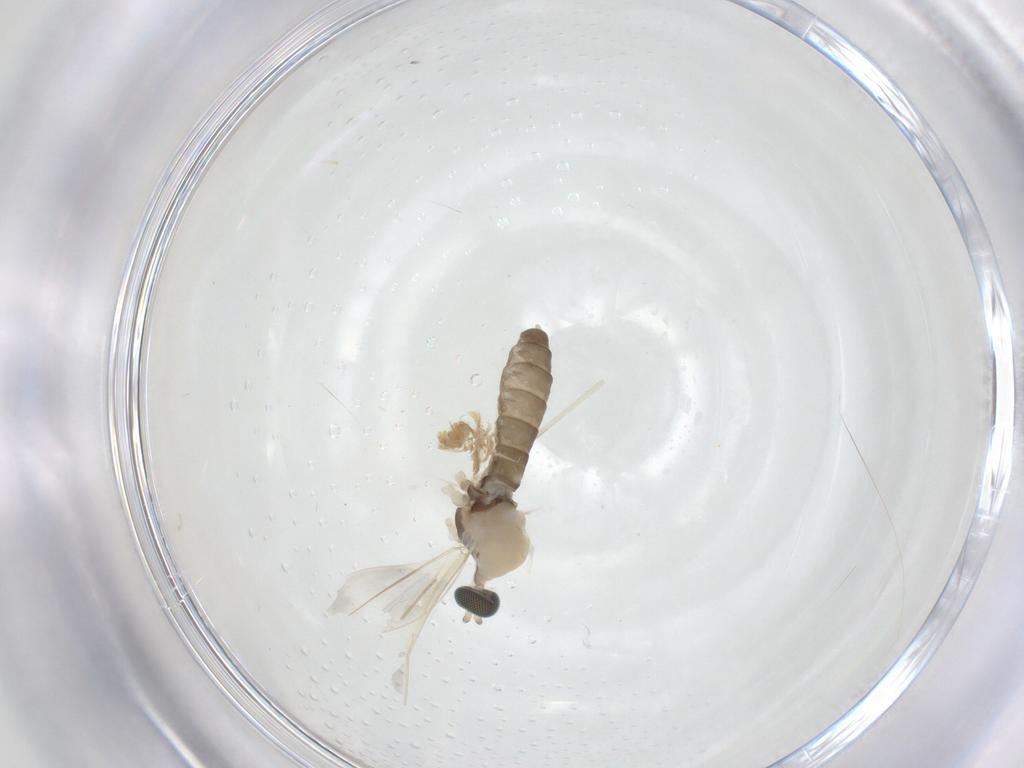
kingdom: Animalia
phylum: Arthropoda
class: Insecta
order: Diptera
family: Cecidomyiidae
